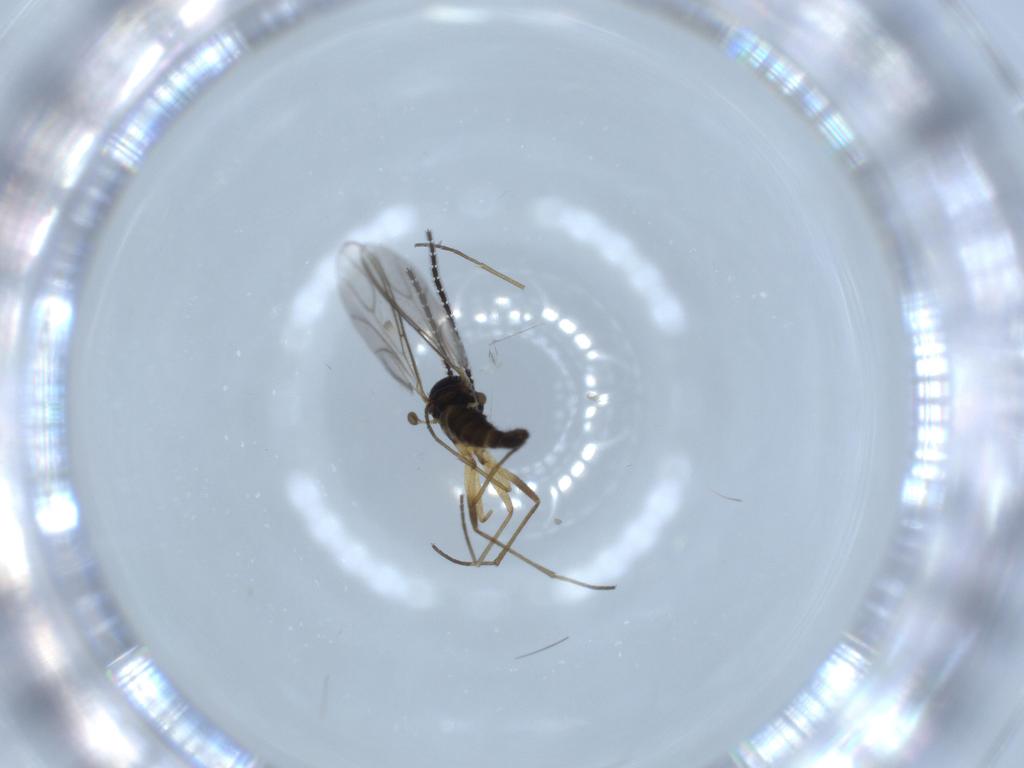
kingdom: Animalia
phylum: Arthropoda
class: Insecta
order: Diptera
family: Sciaridae
